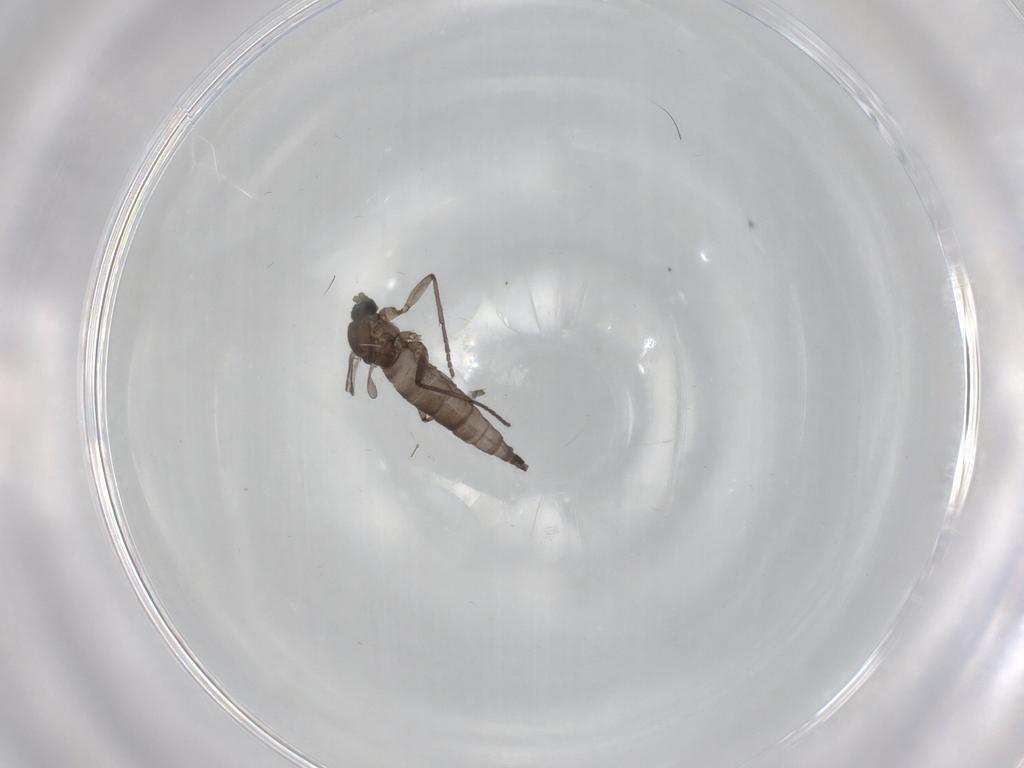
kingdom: Animalia
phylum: Arthropoda
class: Insecta
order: Diptera
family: Sciaridae
